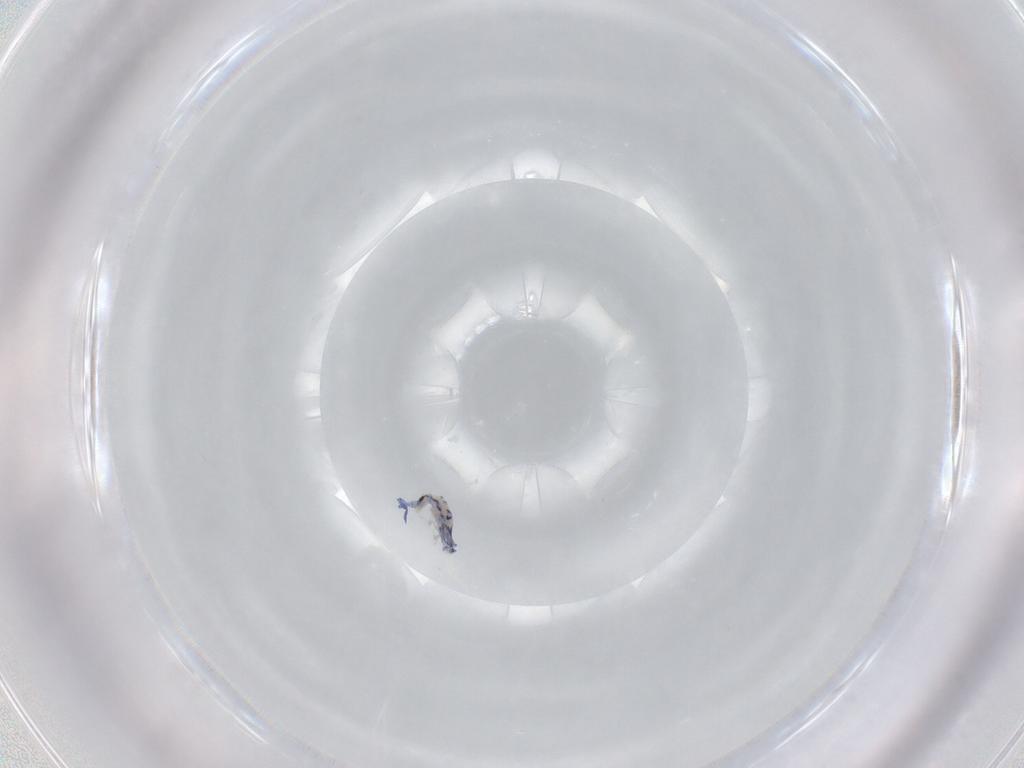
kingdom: Animalia
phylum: Arthropoda
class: Collembola
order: Entomobryomorpha
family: Entomobryidae
